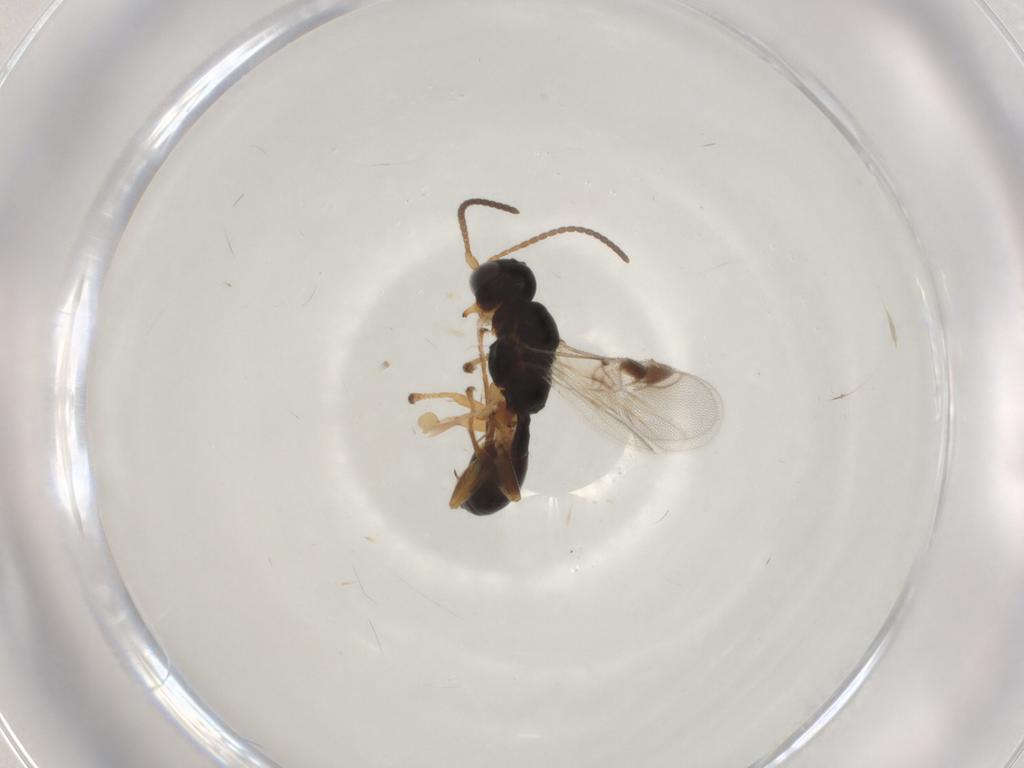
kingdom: Animalia
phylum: Arthropoda
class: Insecta
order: Hymenoptera
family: Braconidae
